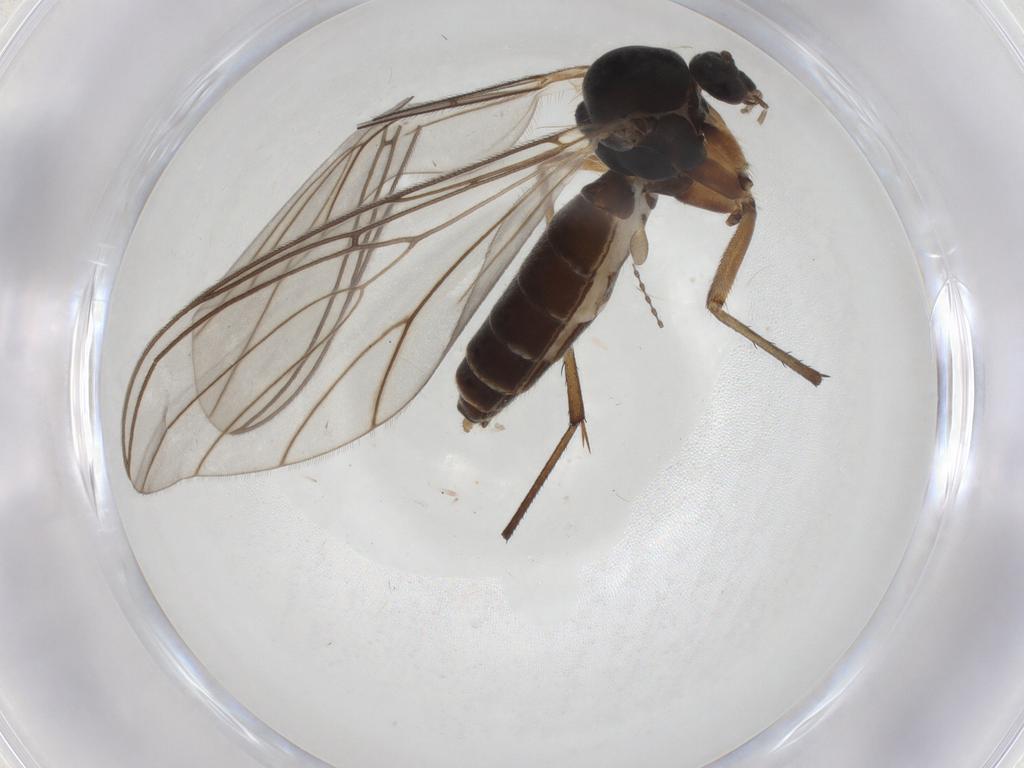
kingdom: Animalia
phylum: Arthropoda
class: Insecta
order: Diptera
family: Mycetophilidae
